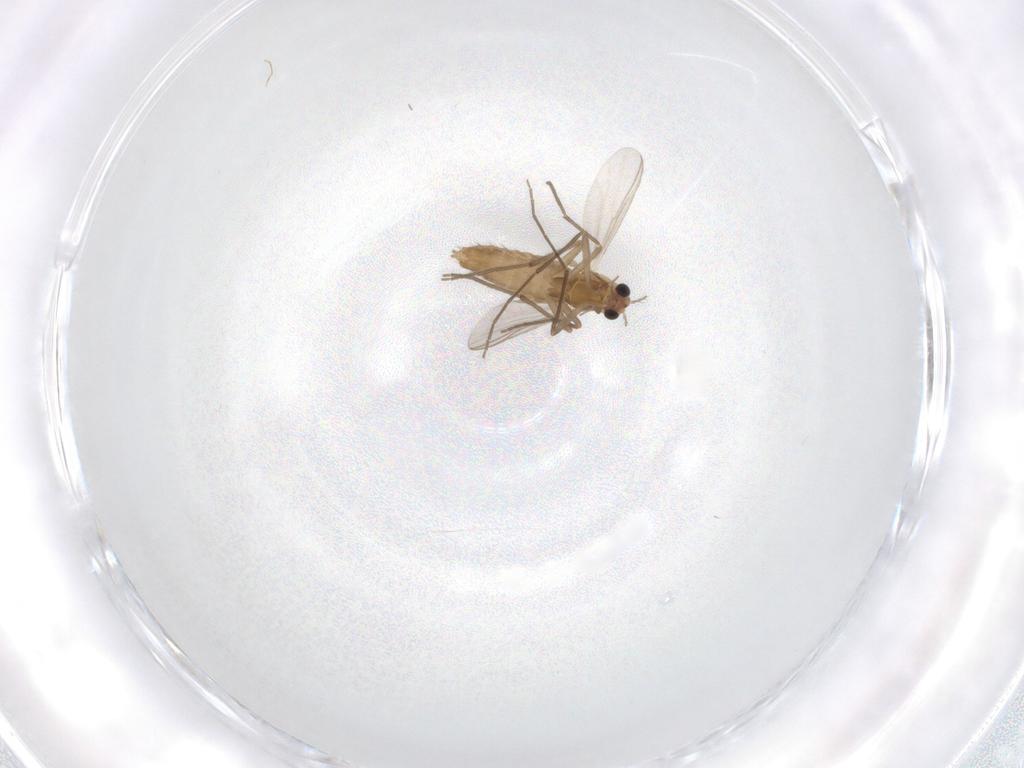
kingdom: Animalia
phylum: Arthropoda
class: Insecta
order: Diptera
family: Chironomidae
